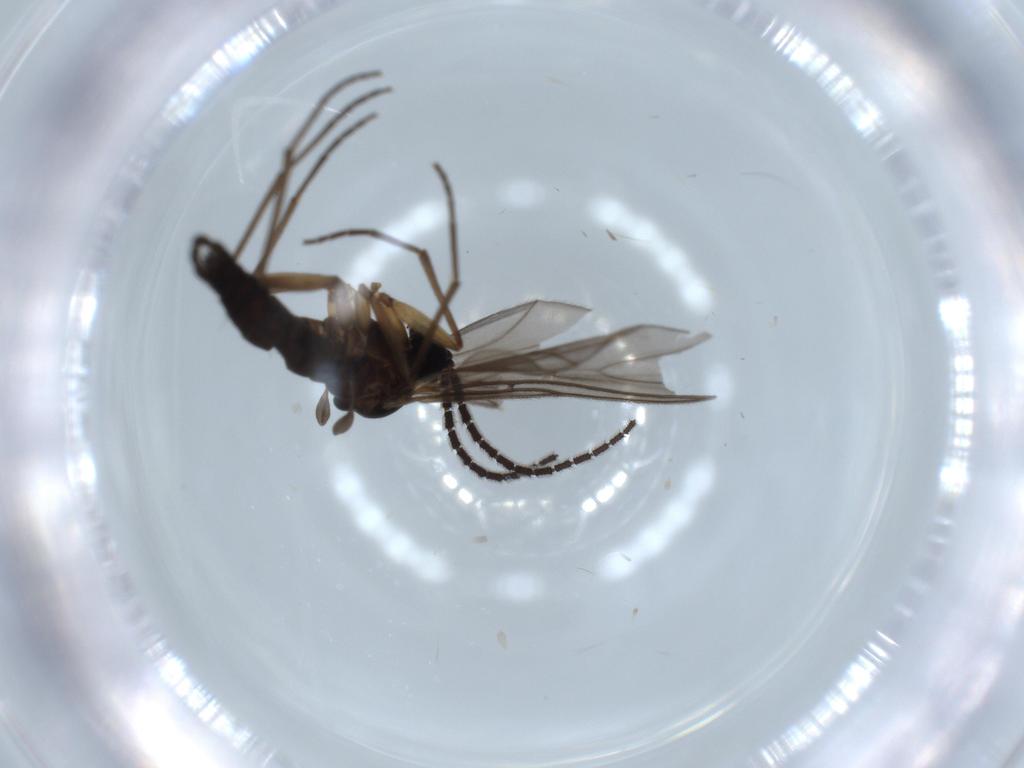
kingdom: Animalia
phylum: Arthropoda
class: Insecta
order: Diptera
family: Sciaridae
